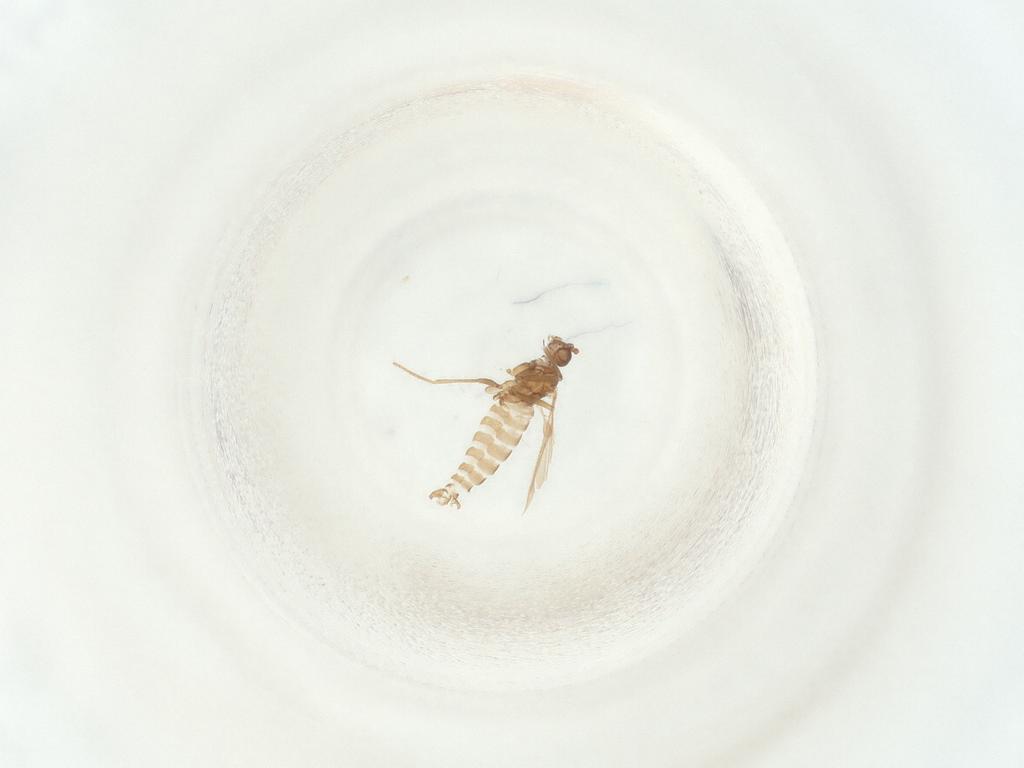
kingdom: Animalia
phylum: Arthropoda
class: Insecta
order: Diptera
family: Sciaridae
